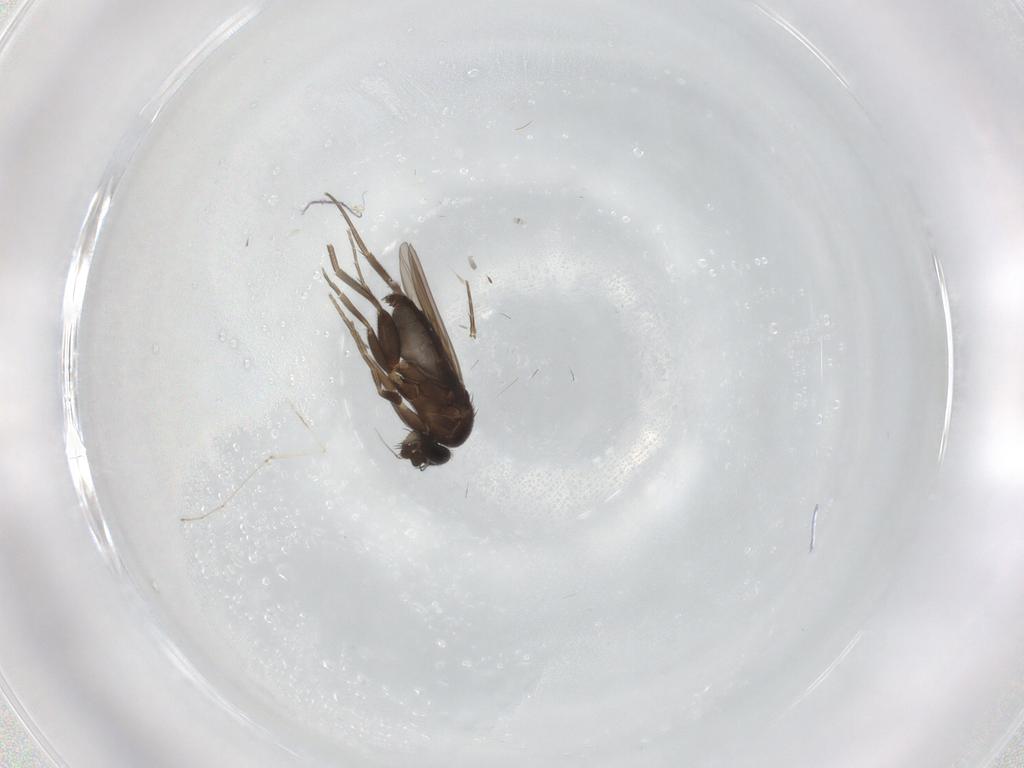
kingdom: Animalia
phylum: Arthropoda
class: Insecta
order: Diptera
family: Phoridae
